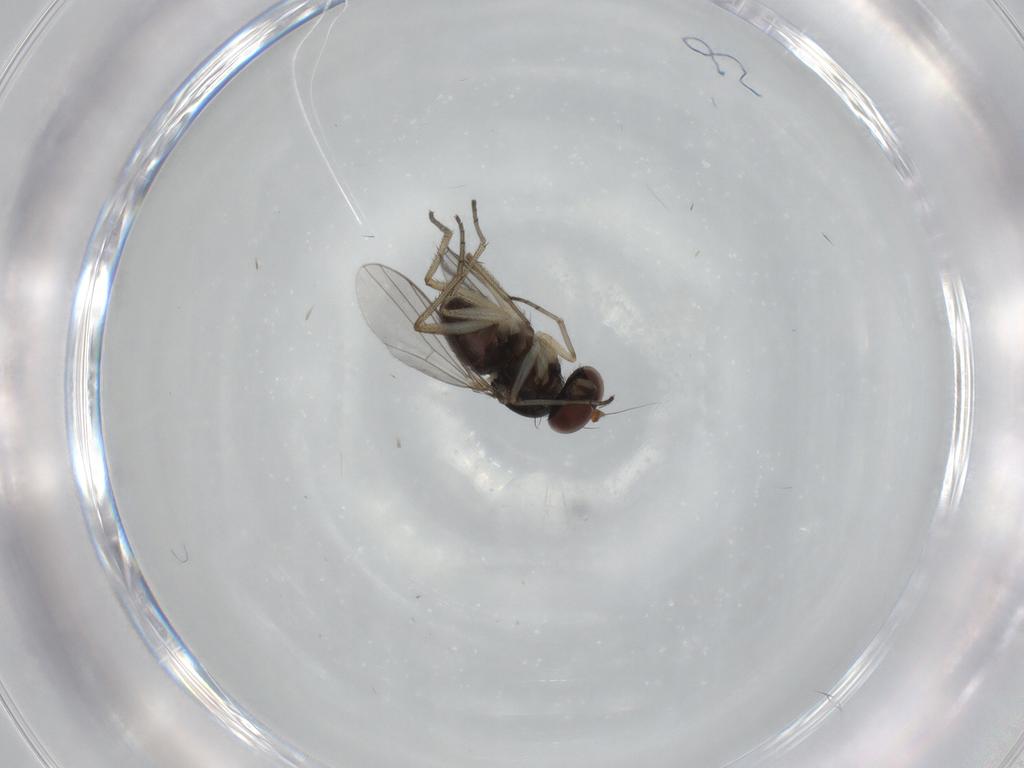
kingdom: Animalia
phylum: Arthropoda
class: Insecta
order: Diptera
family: Dolichopodidae
